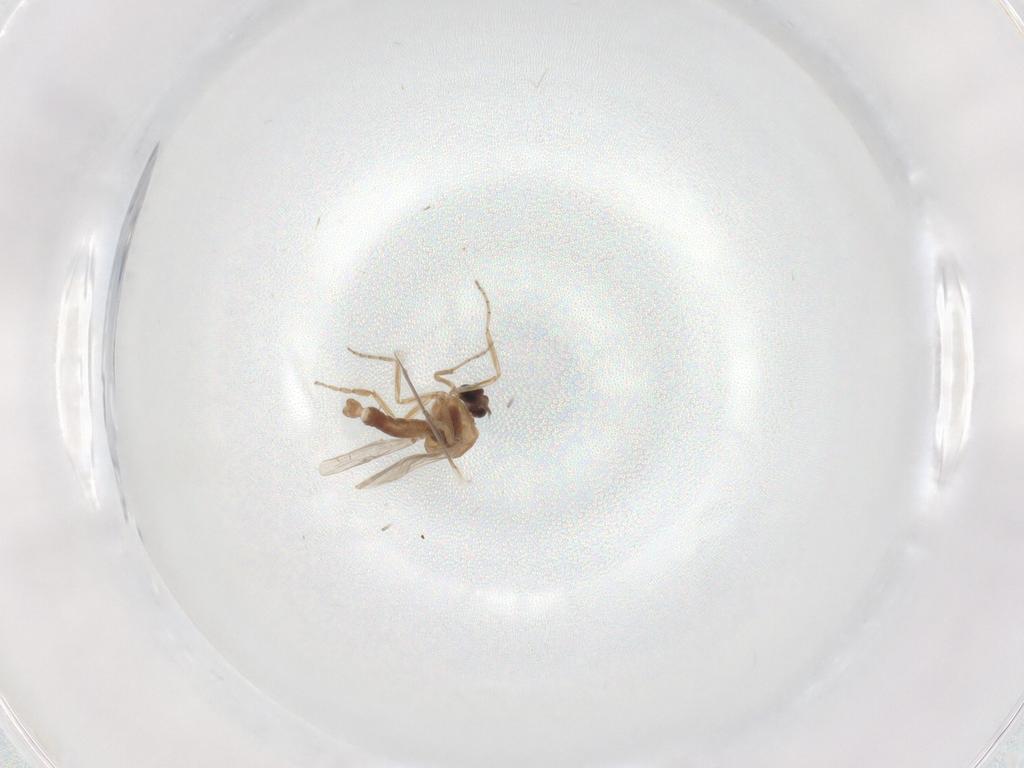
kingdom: Animalia
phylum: Arthropoda
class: Insecta
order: Diptera
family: Chironomidae
